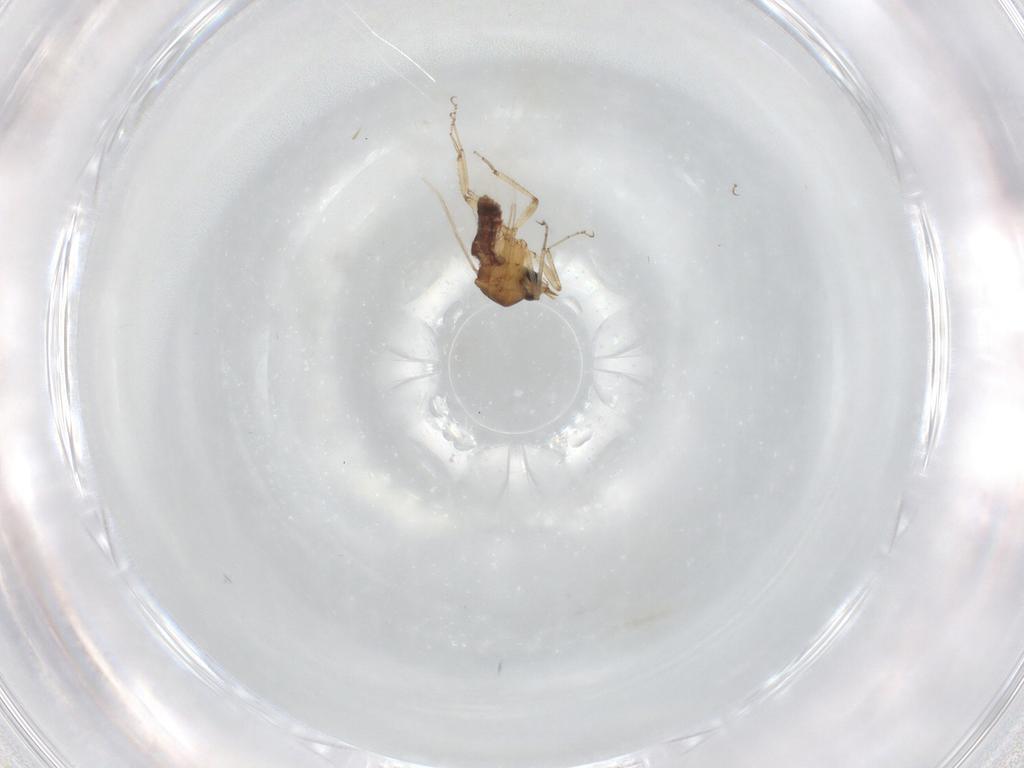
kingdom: Animalia
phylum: Arthropoda
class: Insecta
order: Diptera
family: Ceratopogonidae
